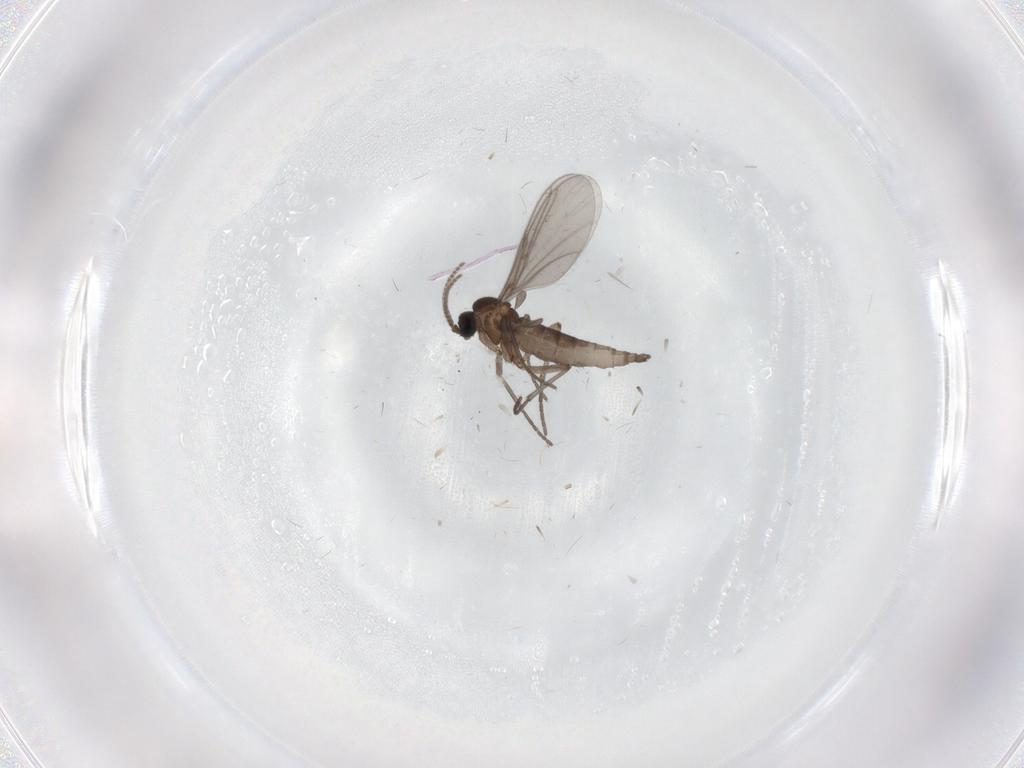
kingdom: Animalia
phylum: Arthropoda
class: Insecta
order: Diptera
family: Sciaridae
